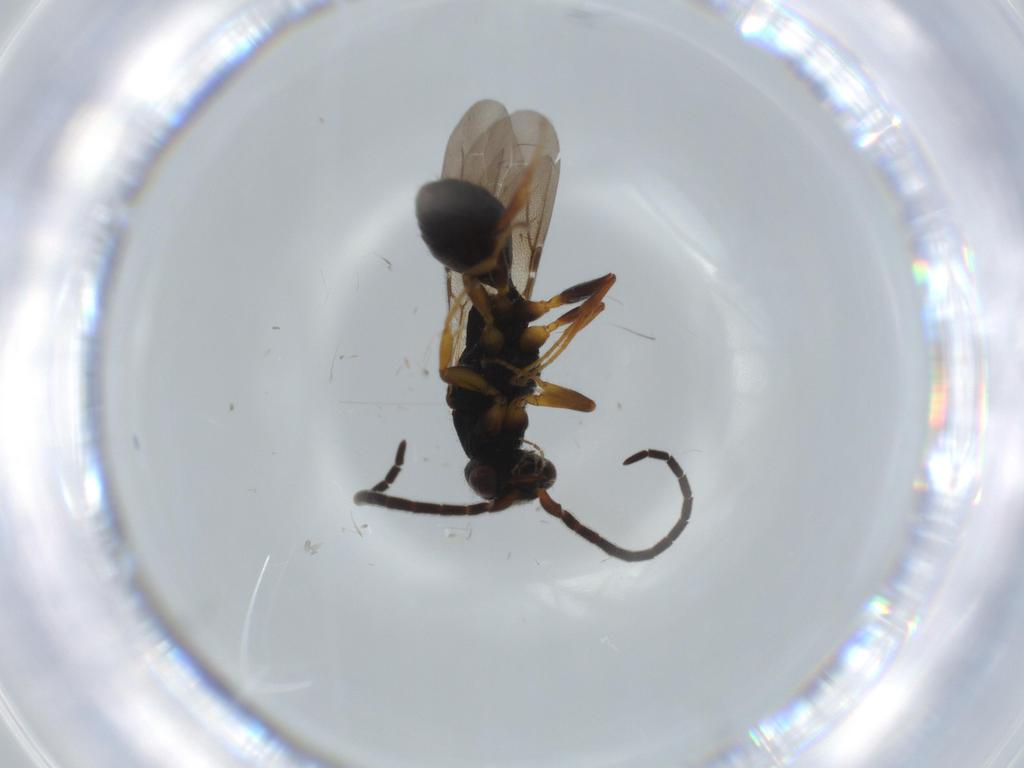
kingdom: Animalia
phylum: Arthropoda
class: Insecta
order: Hymenoptera
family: Bethylidae
